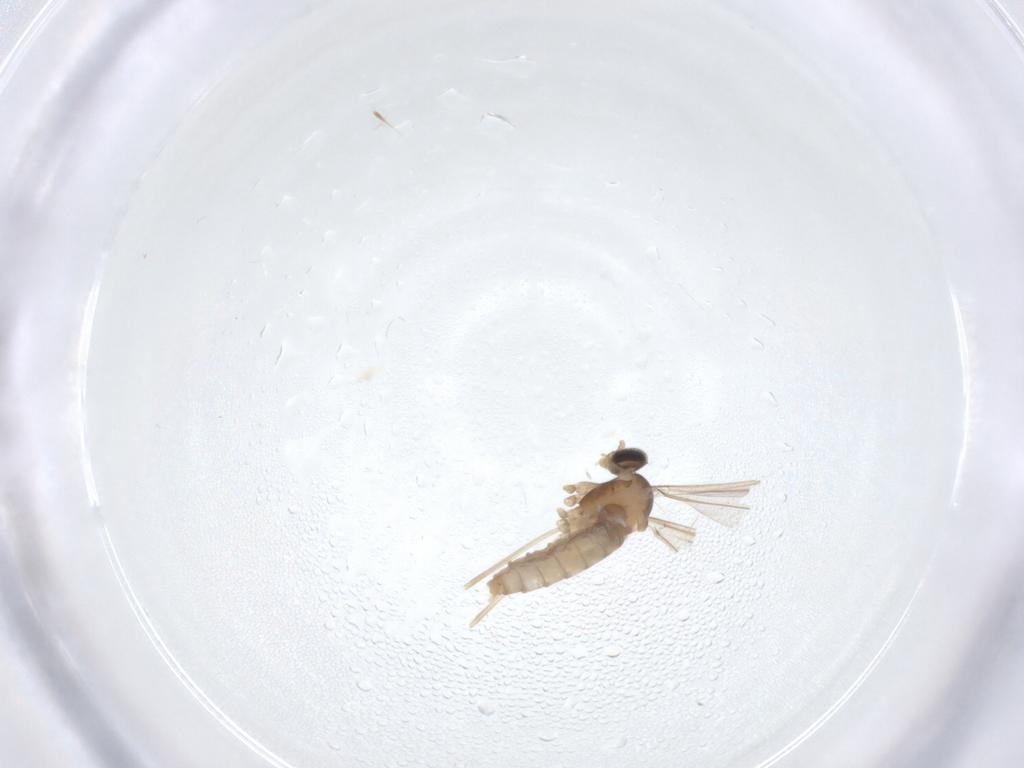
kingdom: Animalia
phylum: Arthropoda
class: Insecta
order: Diptera
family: Cecidomyiidae
